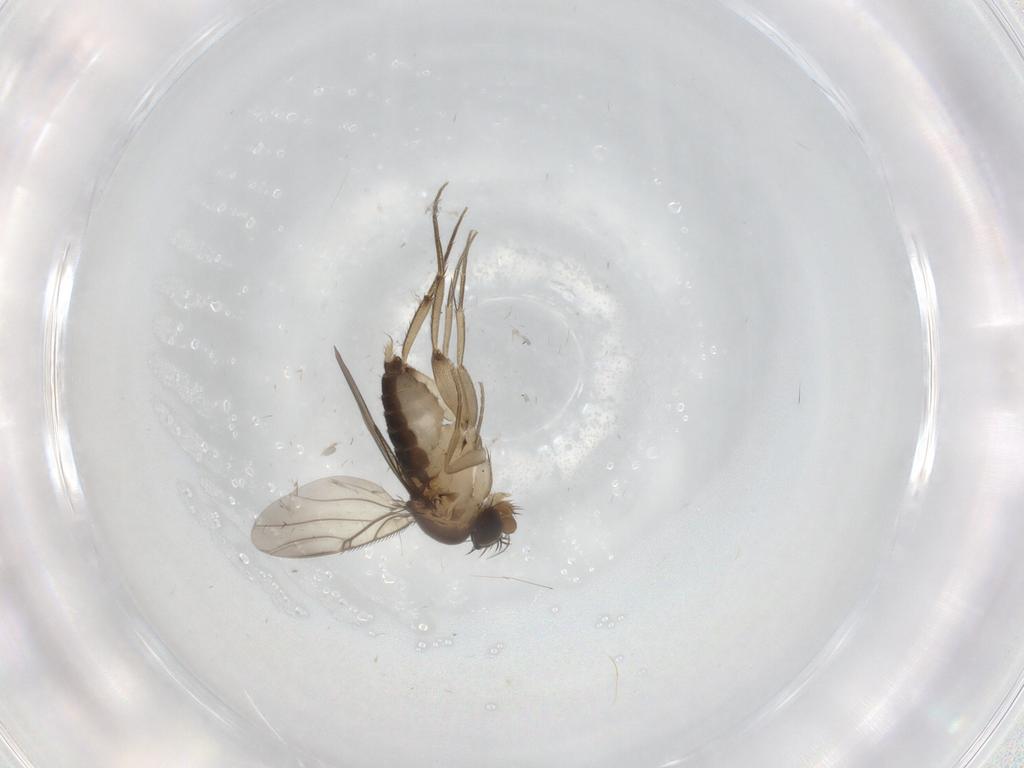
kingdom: Animalia
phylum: Arthropoda
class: Insecta
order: Diptera
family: Phoridae
